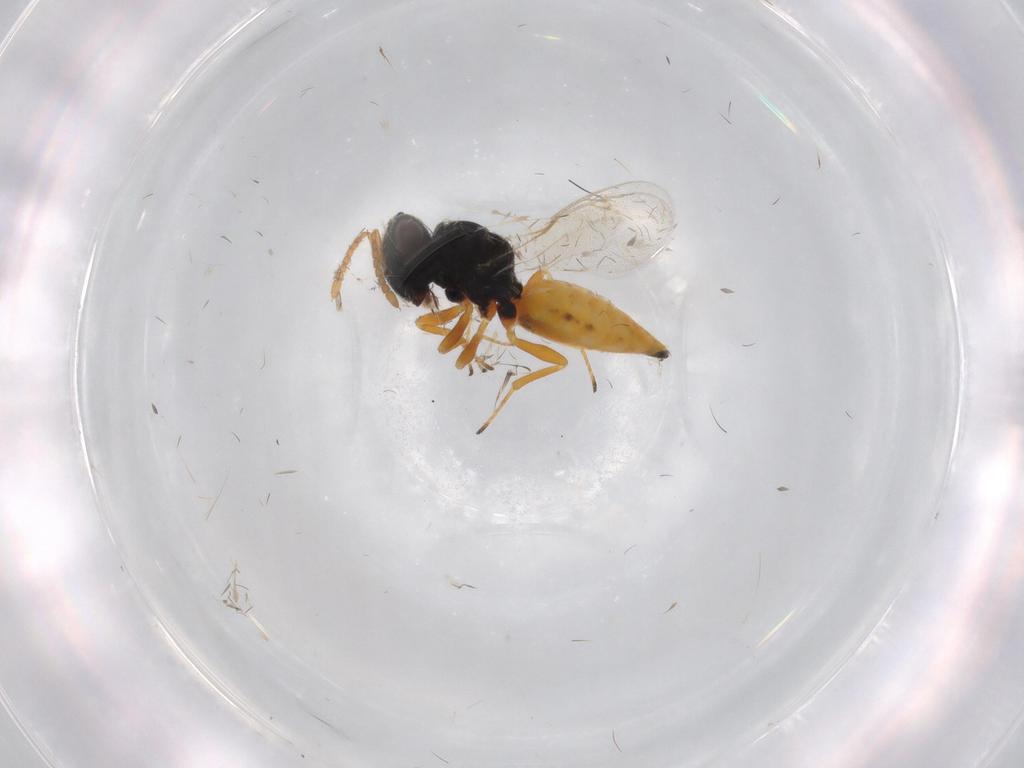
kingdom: Animalia
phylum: Arthropoda
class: Insecta
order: Hymenoptera
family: Pteromalidae
